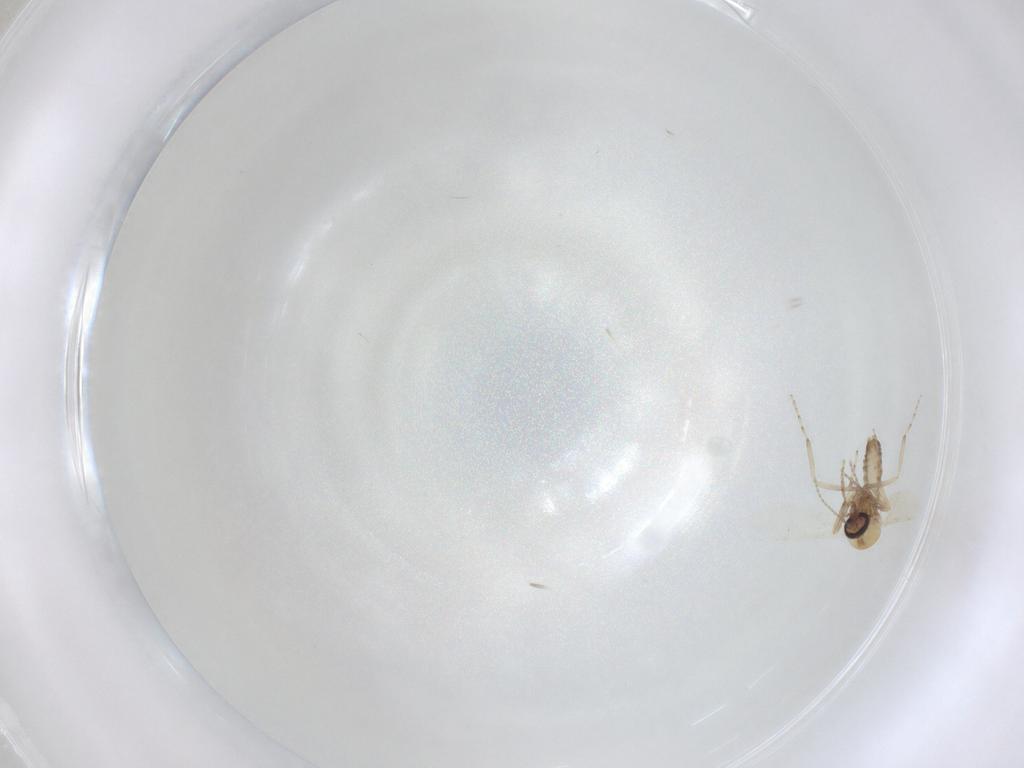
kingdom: Animalia
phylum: Arthropoda
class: Insecta
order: Diptera
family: Cecidomyiidae
